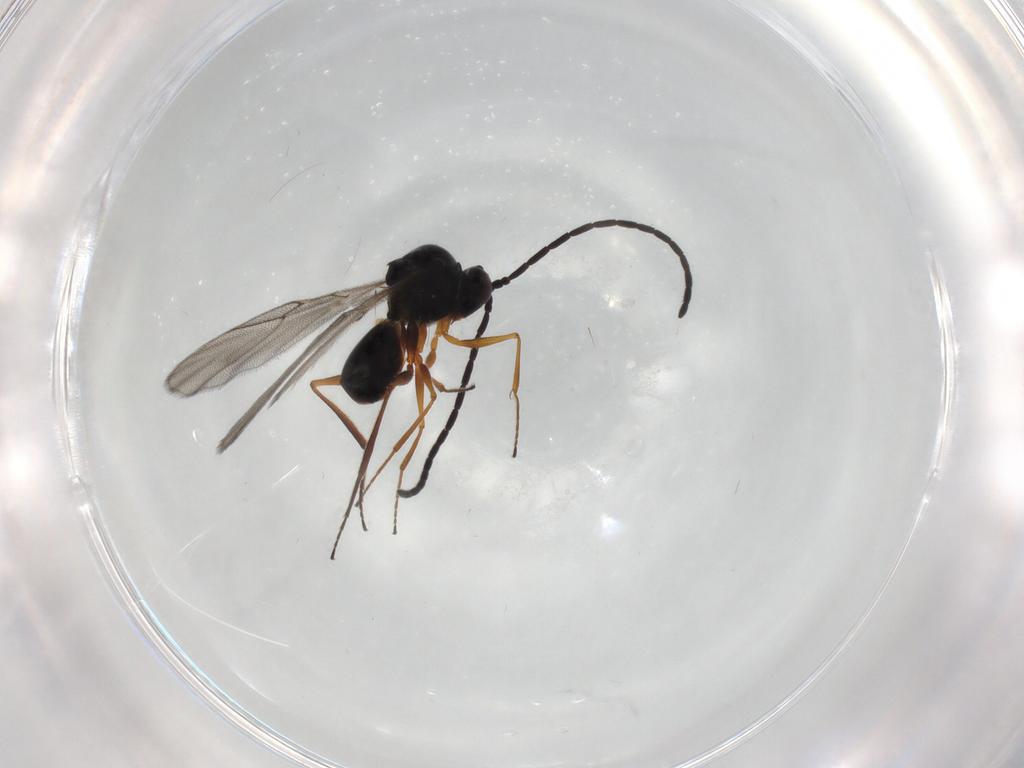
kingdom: Animalia
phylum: Arthropoda
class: Insecta
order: Hymenoptera
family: Figitidae
